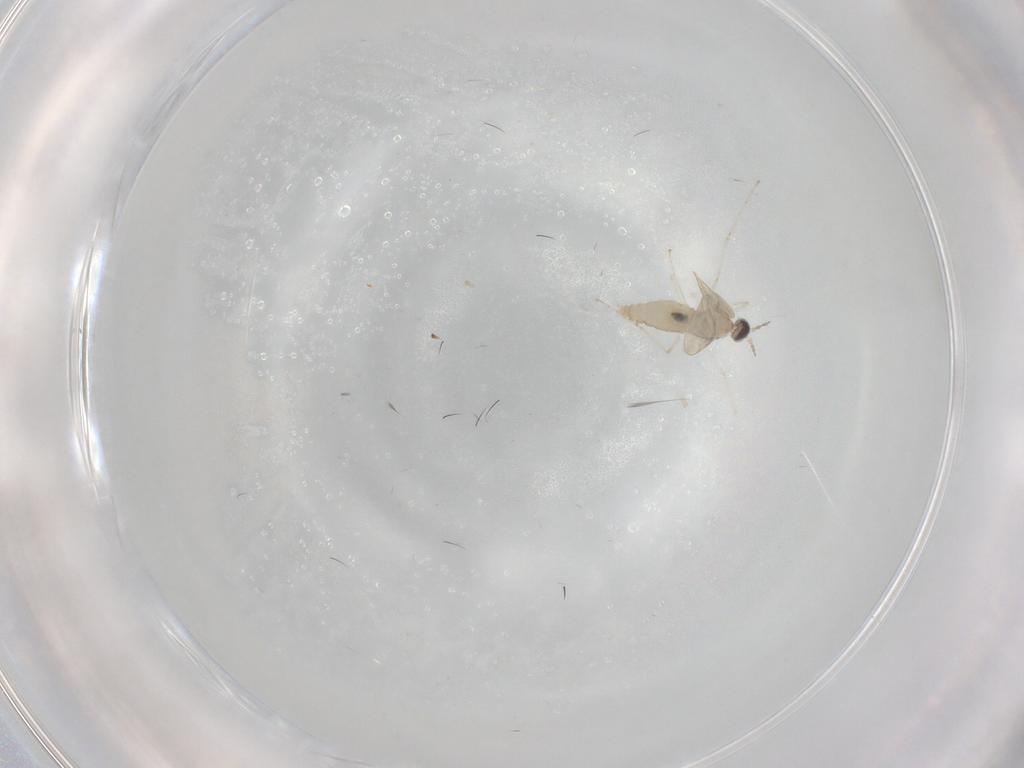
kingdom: Animalia
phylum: Arthropoda
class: Insecta
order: Diptera
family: Cecidomyiidae
